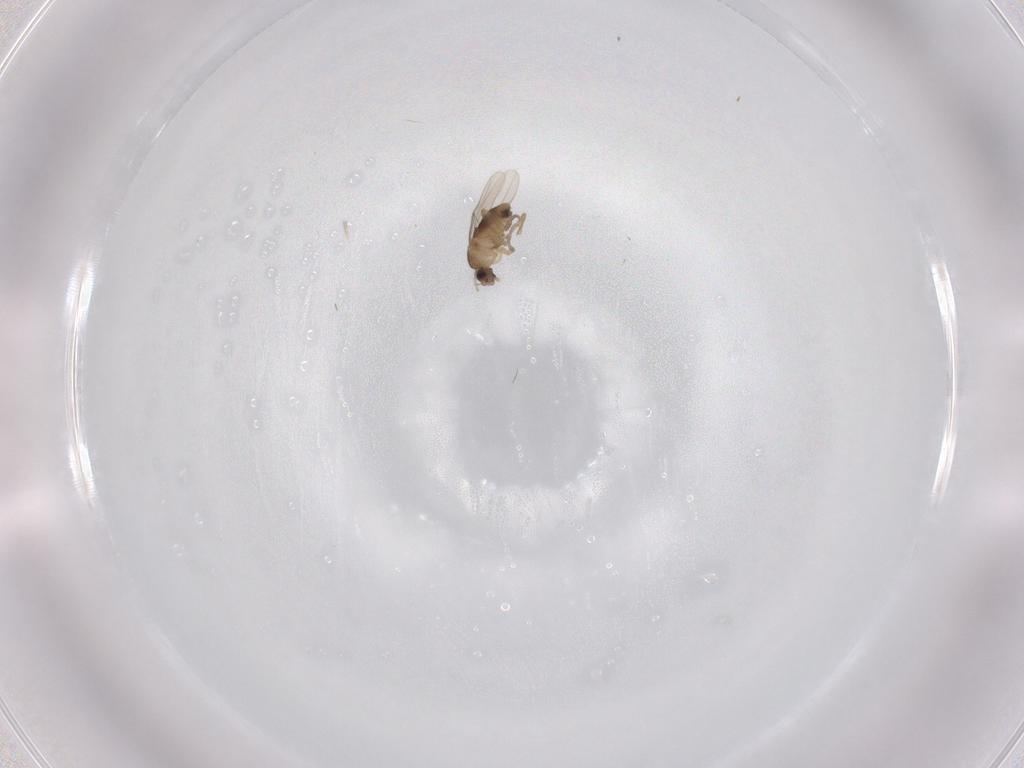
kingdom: Animalia
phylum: Arthropoda
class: Insecta
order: Diptera
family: Phoridae
